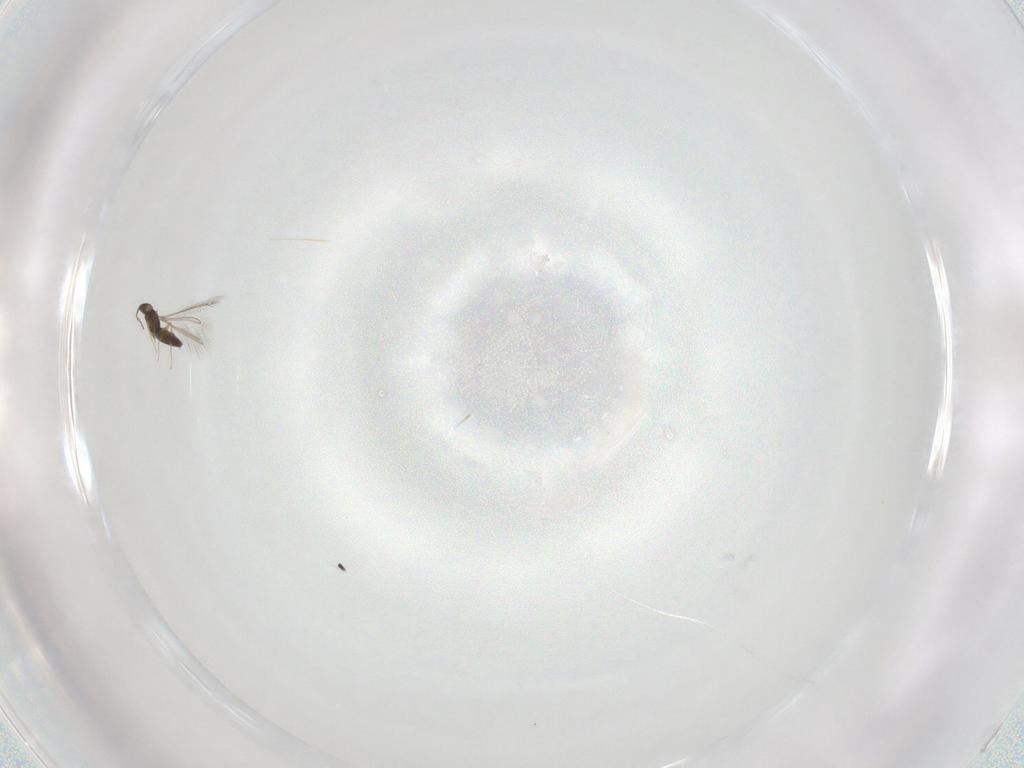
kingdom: Animalia
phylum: Arthropoda
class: Insecta
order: Hymenoptera
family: Mymaridae
